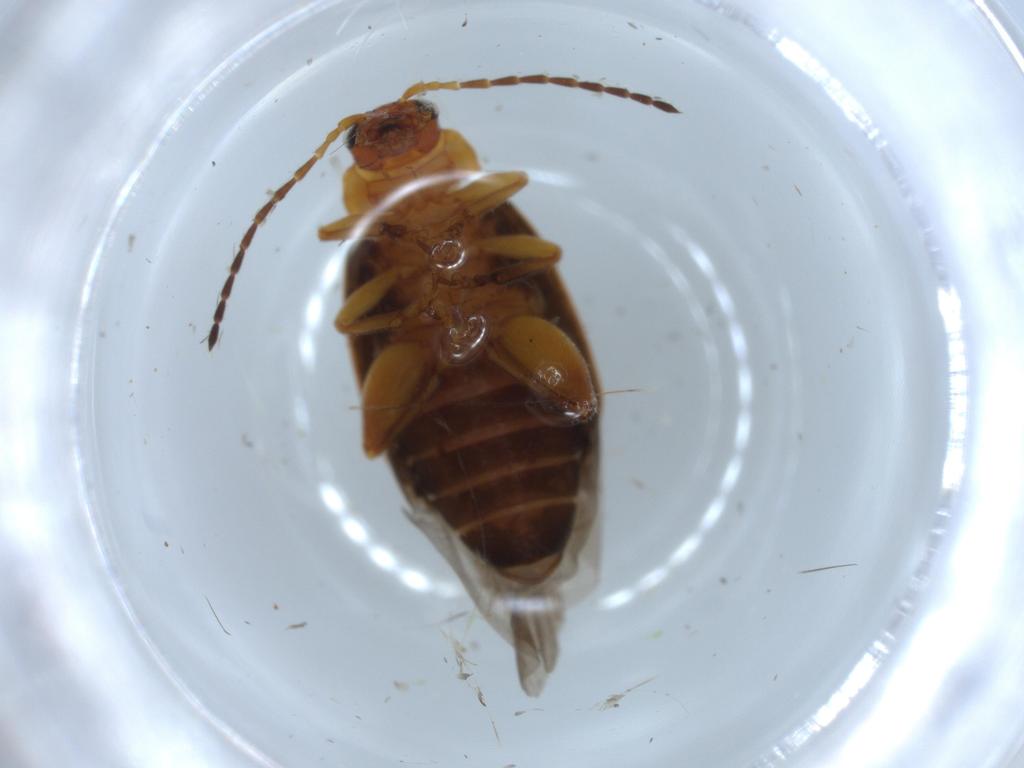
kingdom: Animalia
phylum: Arthropoda
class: Insecta
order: Coleoptera
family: Chrysomelidae
